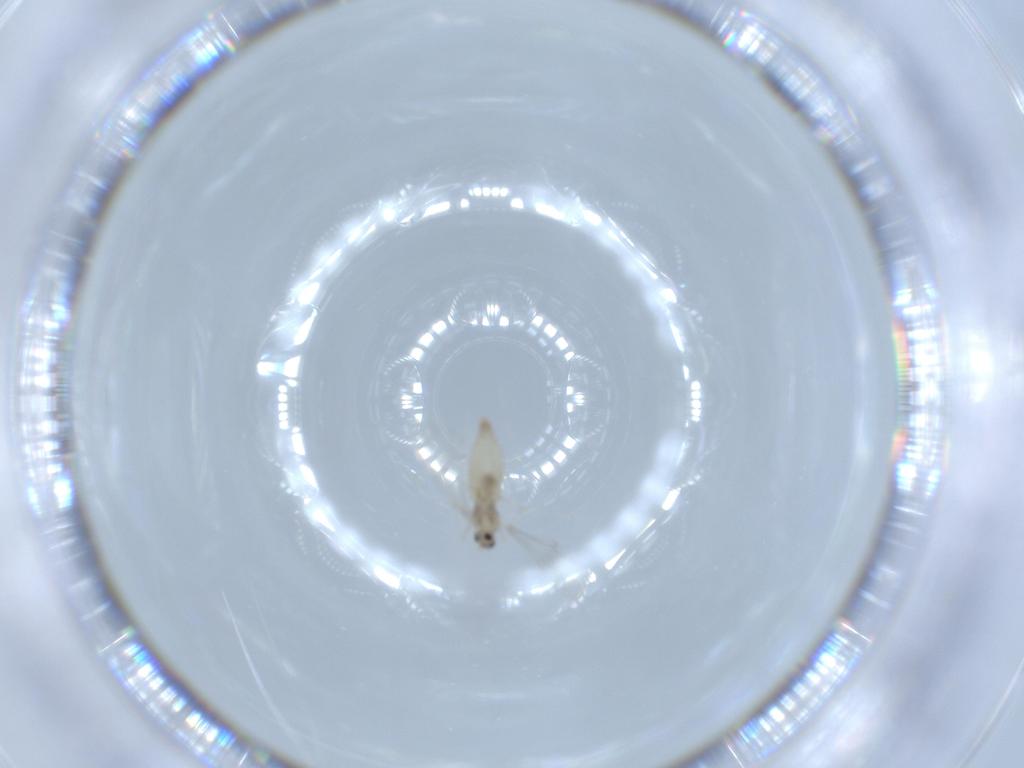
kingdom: Animalia
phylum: Arthropoda
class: Insecta
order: Diptera
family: Cecidomyiidae
